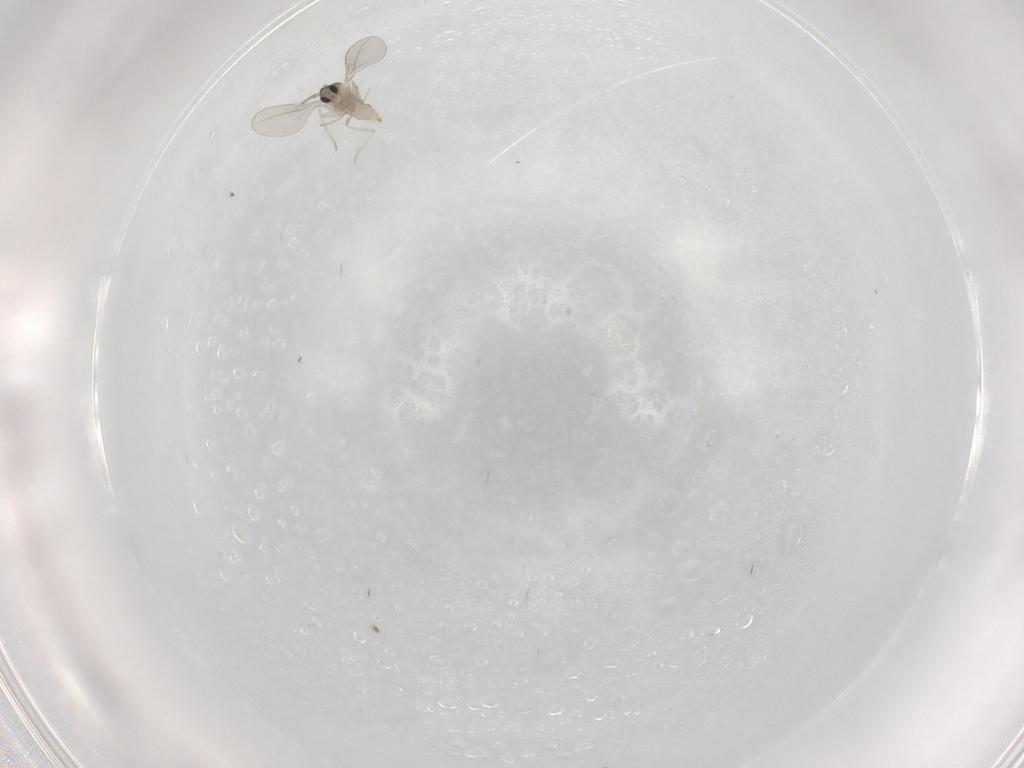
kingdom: Animalia
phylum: Arthropoda
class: Insecta
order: Diptera
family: Chironomidae
